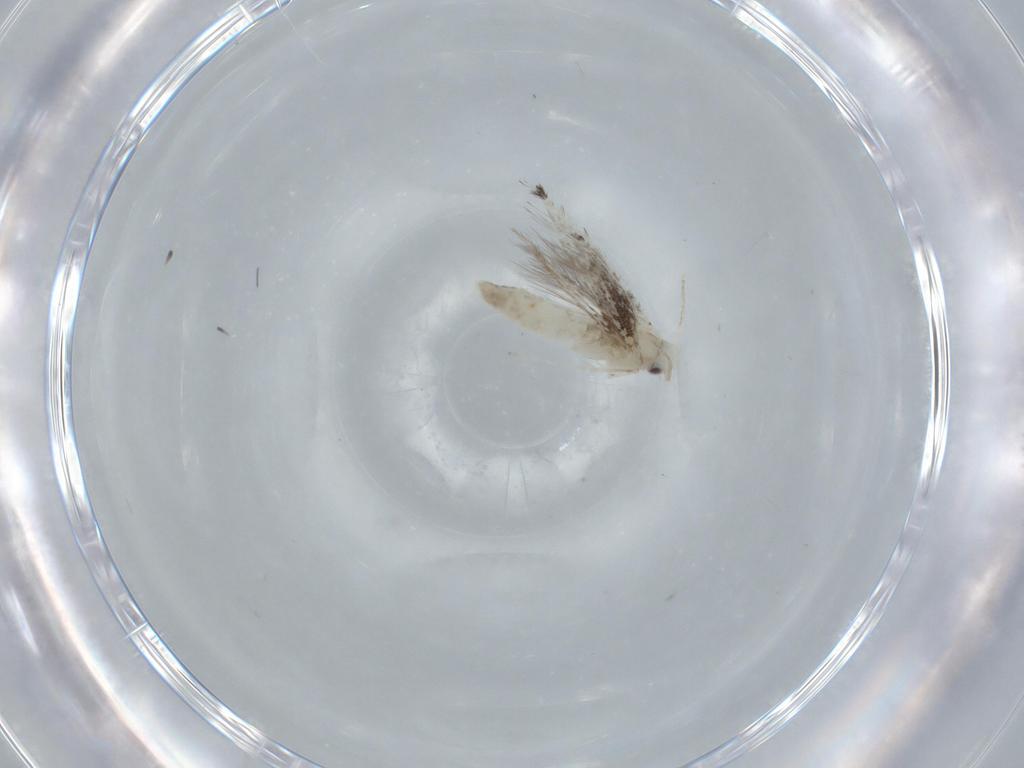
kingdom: Animalia
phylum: Arthropoda
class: Insecta
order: Lepidoptera
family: Gracillariidae
